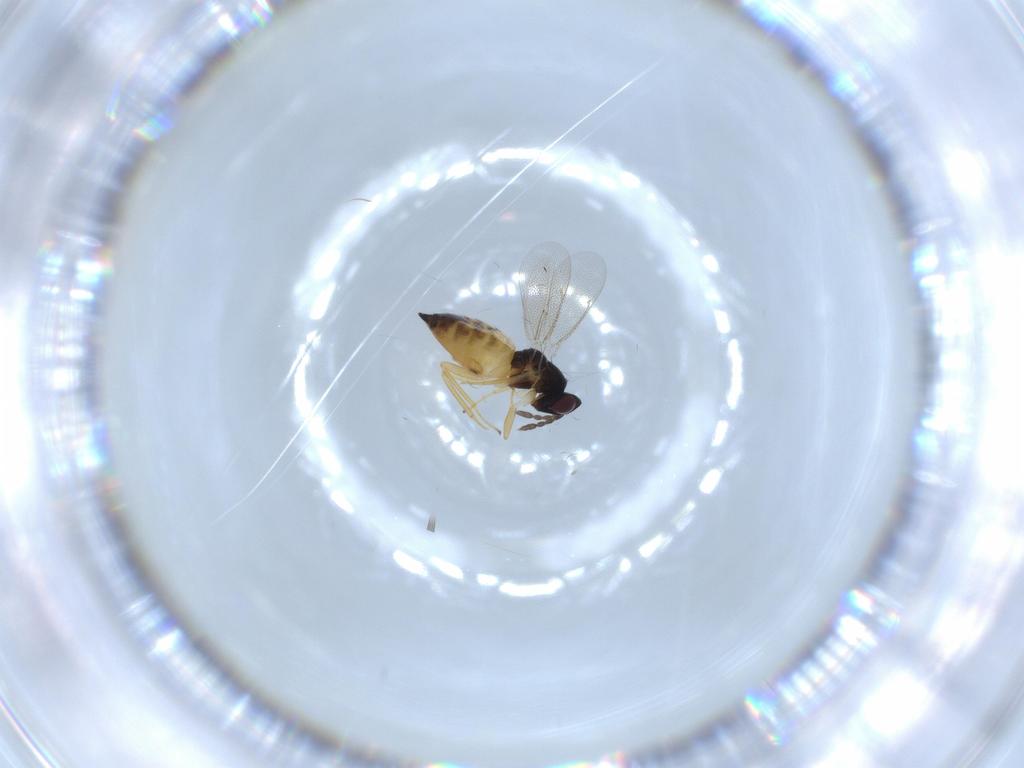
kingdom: Animalia
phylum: Arthropoda
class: Insecta
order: Hymenoptera
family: Eulophidae
